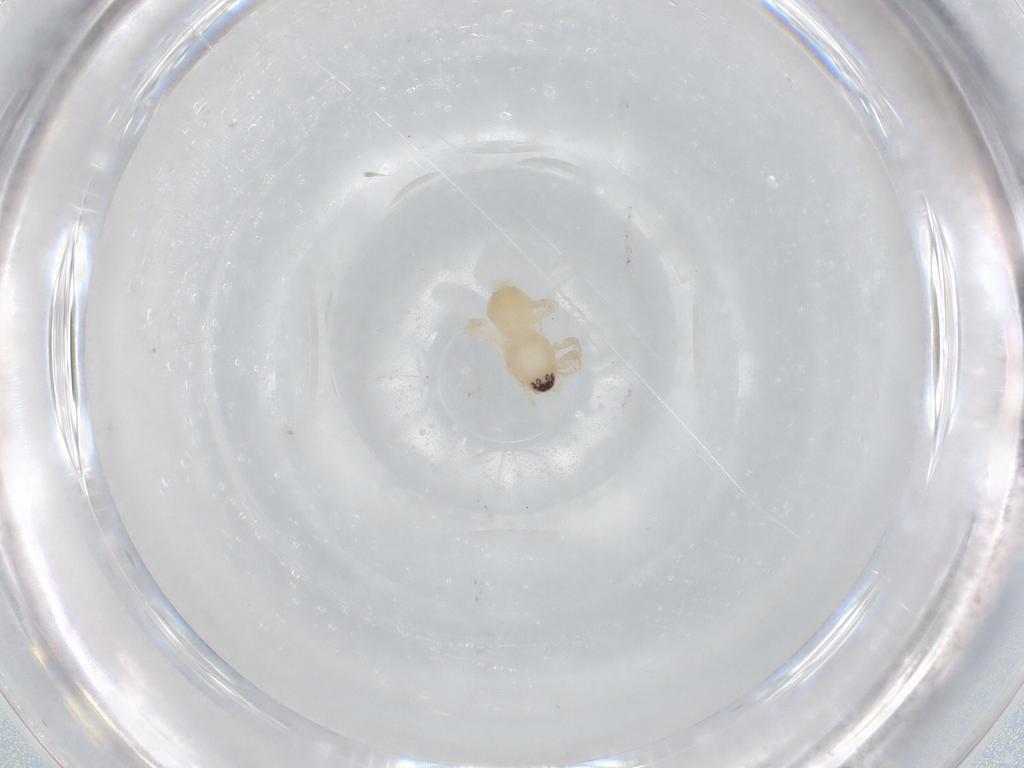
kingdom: Animalia
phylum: Arthropoda
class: Arachnida
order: Araneae
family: Gnaphosidae
